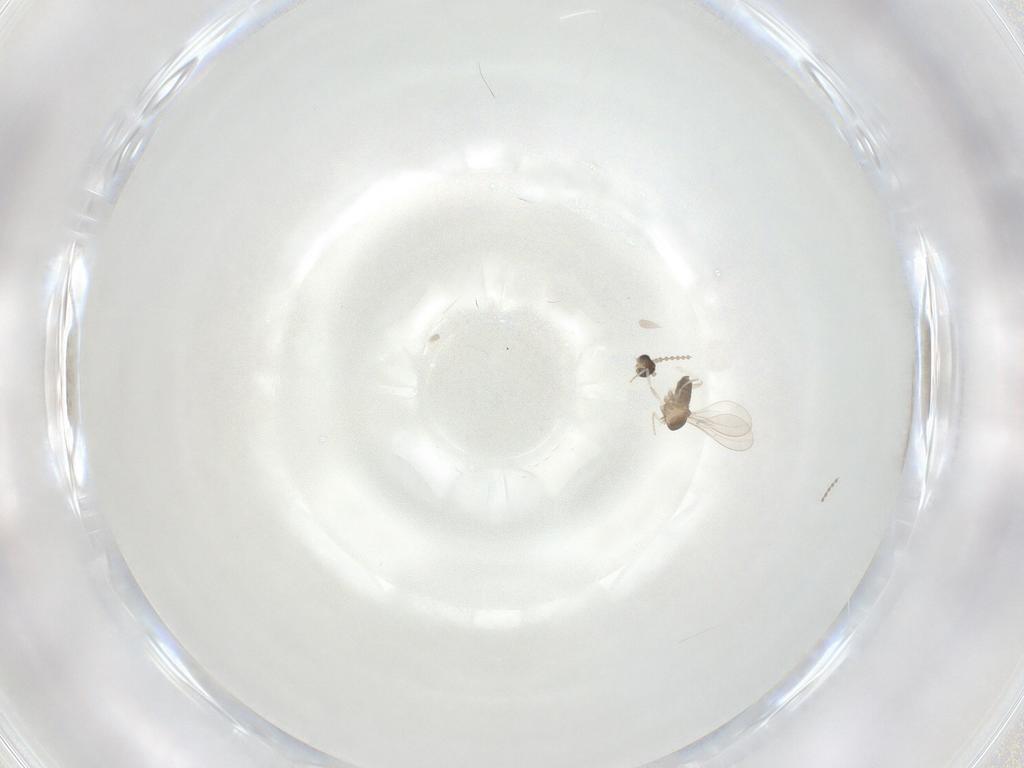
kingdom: Animalia
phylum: Arthropoda
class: Insecta
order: Diptera
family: Cecidomyiidae
